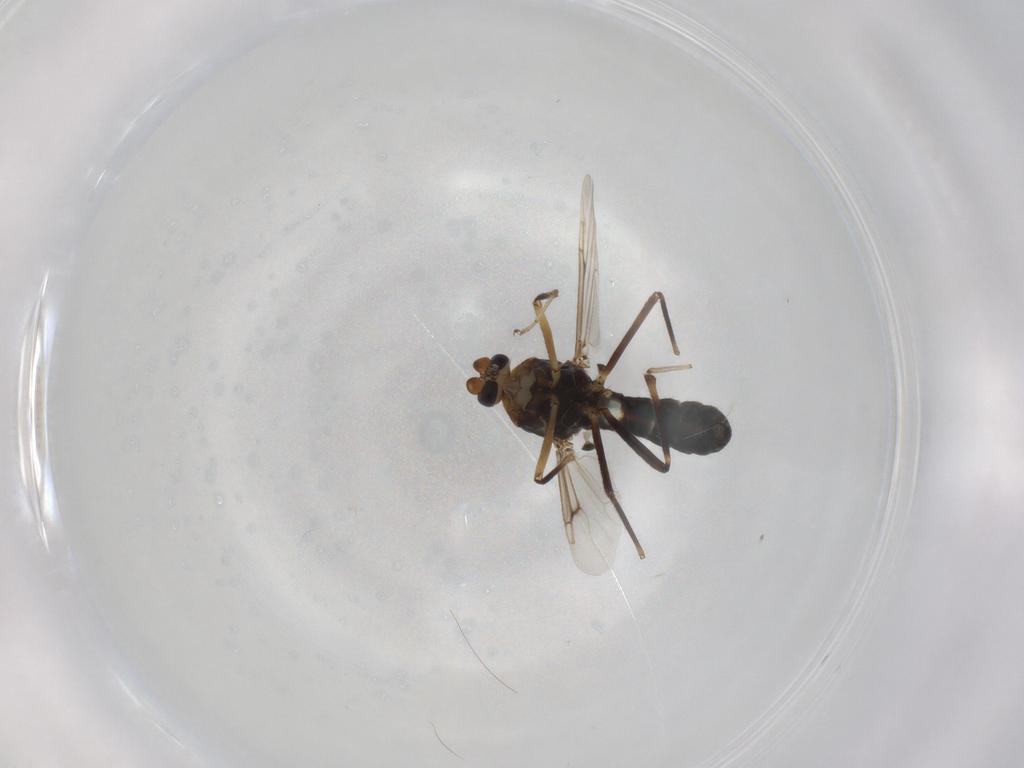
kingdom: Animalia
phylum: Arthropoda
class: Insecta
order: Diptera
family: Ceratopogonidae
